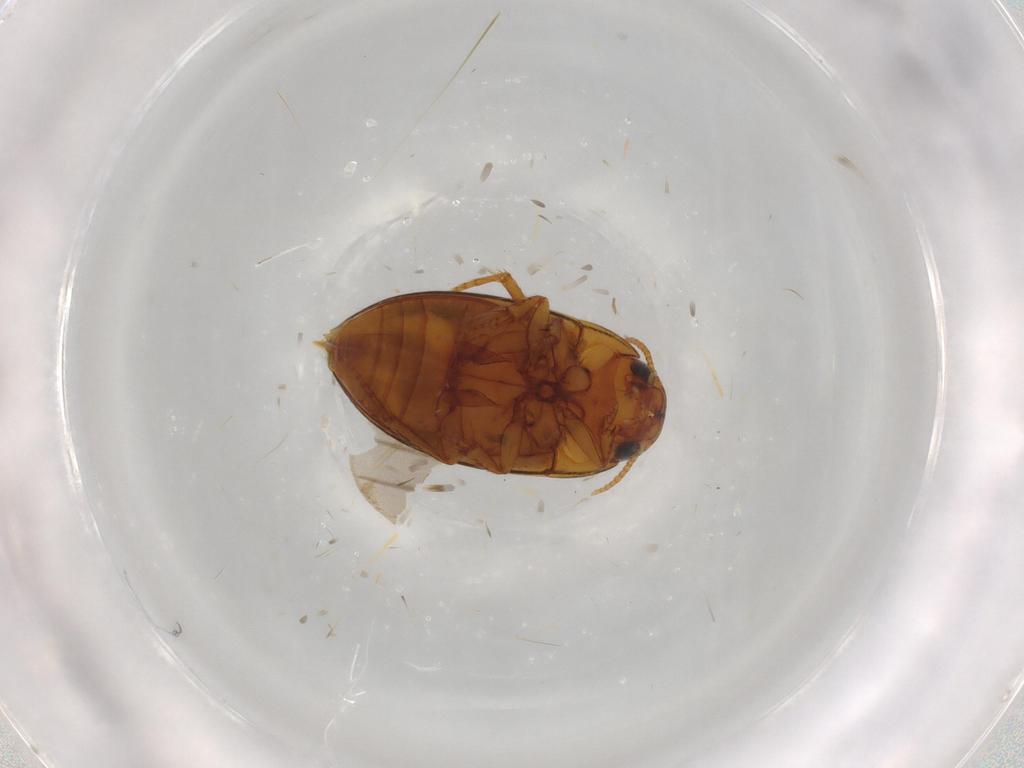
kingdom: Animalia
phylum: Arthropoda
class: Insecta
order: Coleoptera
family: Noteridae
